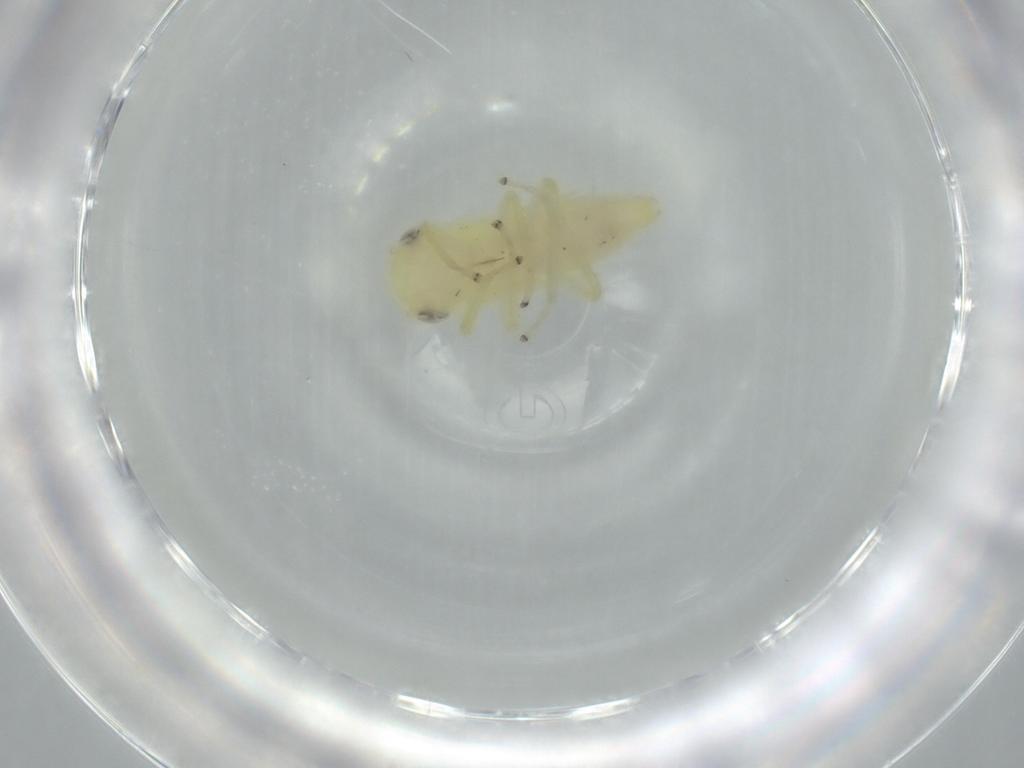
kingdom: Animalia
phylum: Arthropoda
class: Insecta
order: Hemiptera
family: Cicadellidae
